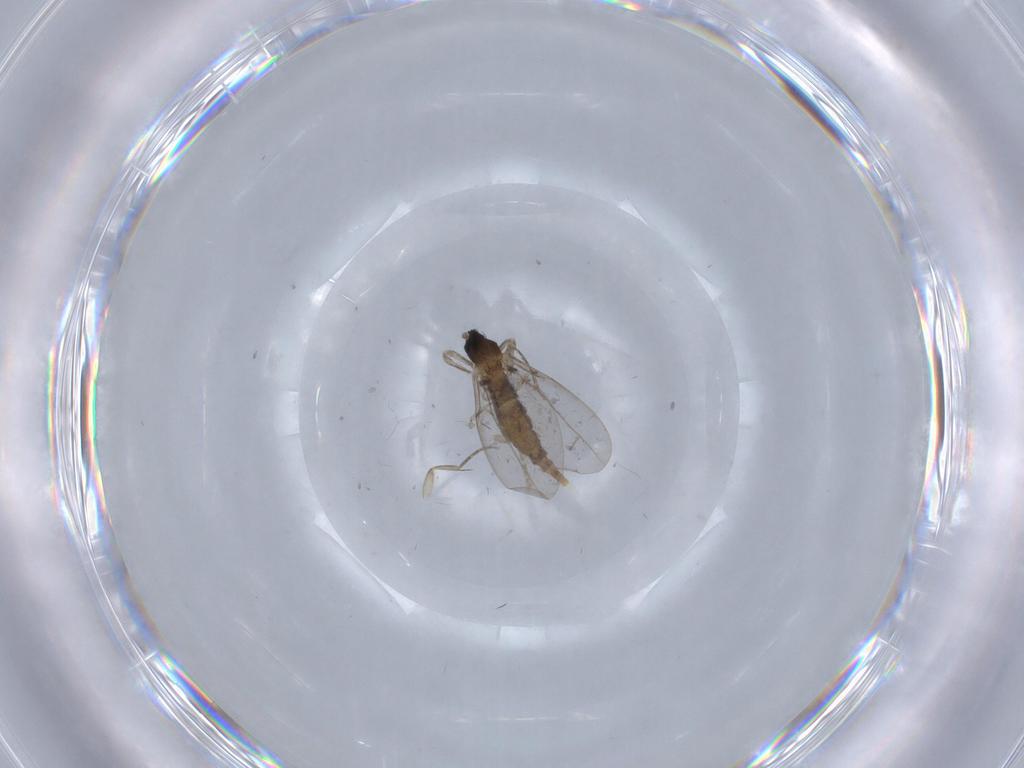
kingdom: Animalia
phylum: Arthropoda
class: Insecta
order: Diptera
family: Cecidomyiidae
